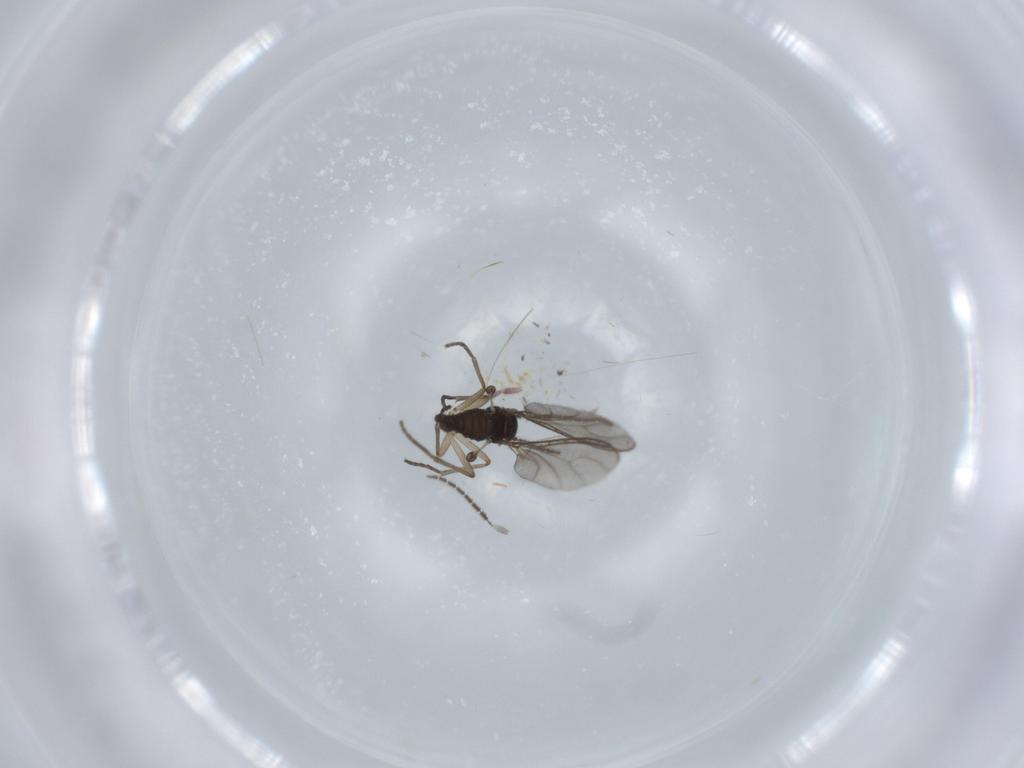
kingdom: Animalia
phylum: Arthropoda
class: Insecta
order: Diptera
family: Sciaridae
